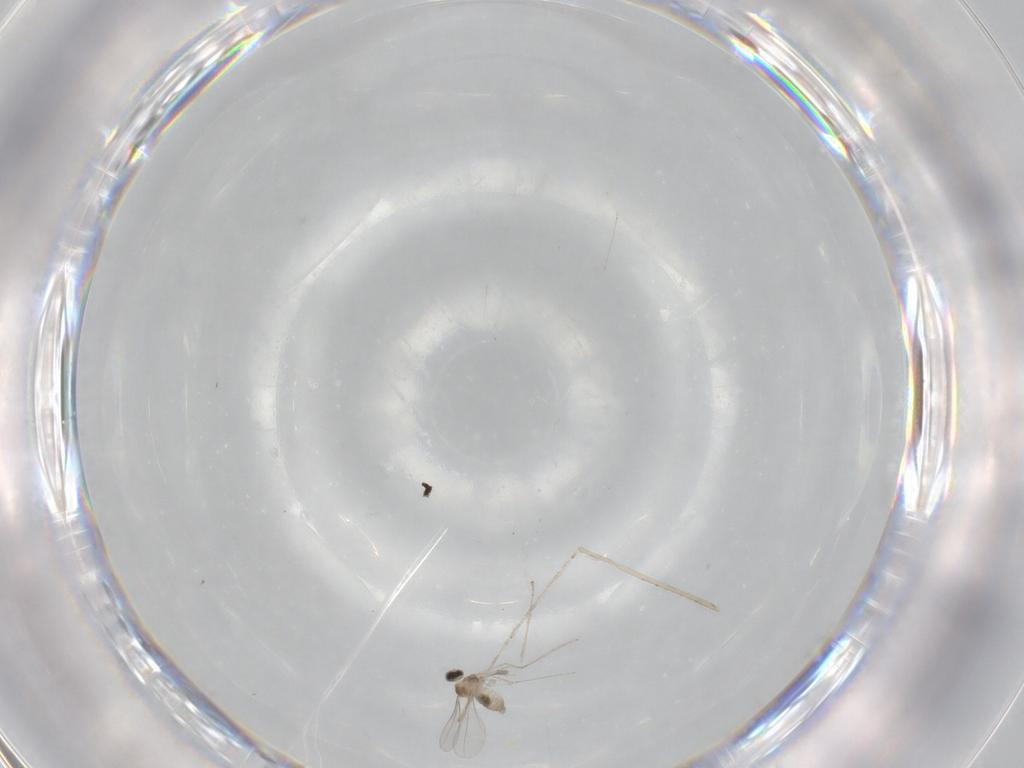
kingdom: Animalia
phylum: Arthropoda
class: Insecta
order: Diptera
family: Cecidomyiidae
